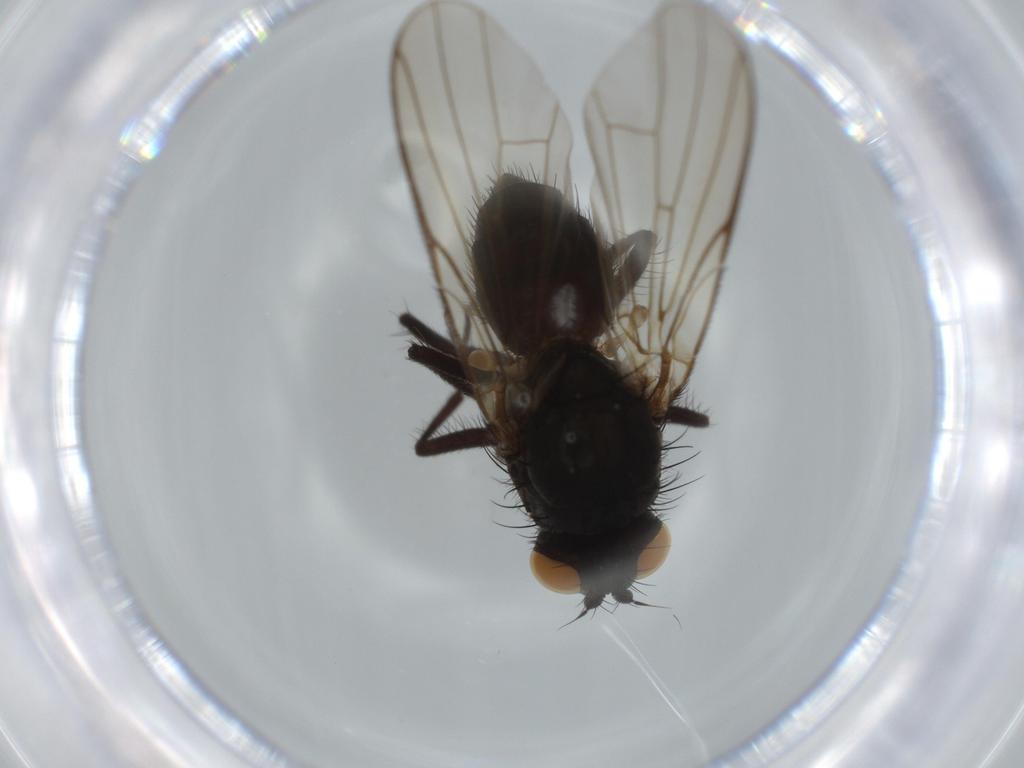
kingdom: Animalia
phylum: Arthropoda
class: Insecta
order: Diptera
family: Anthomyiidae
